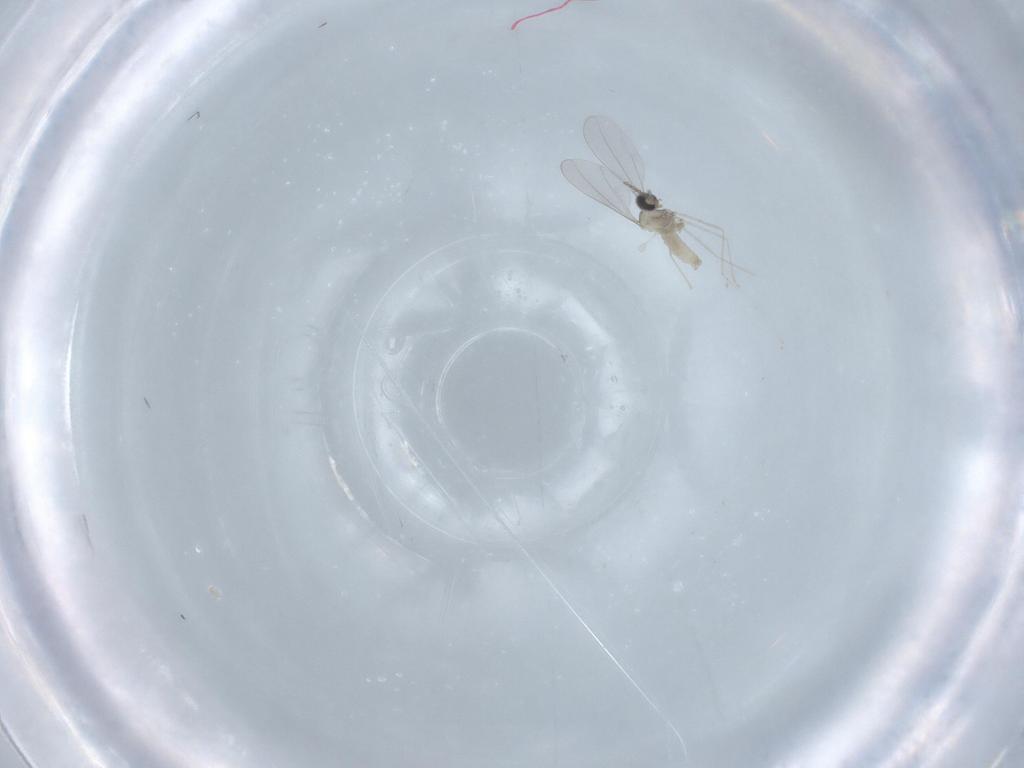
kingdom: Animalia
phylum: Arthropoda
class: Insecta
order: Diptera
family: Cecidomyiidae
